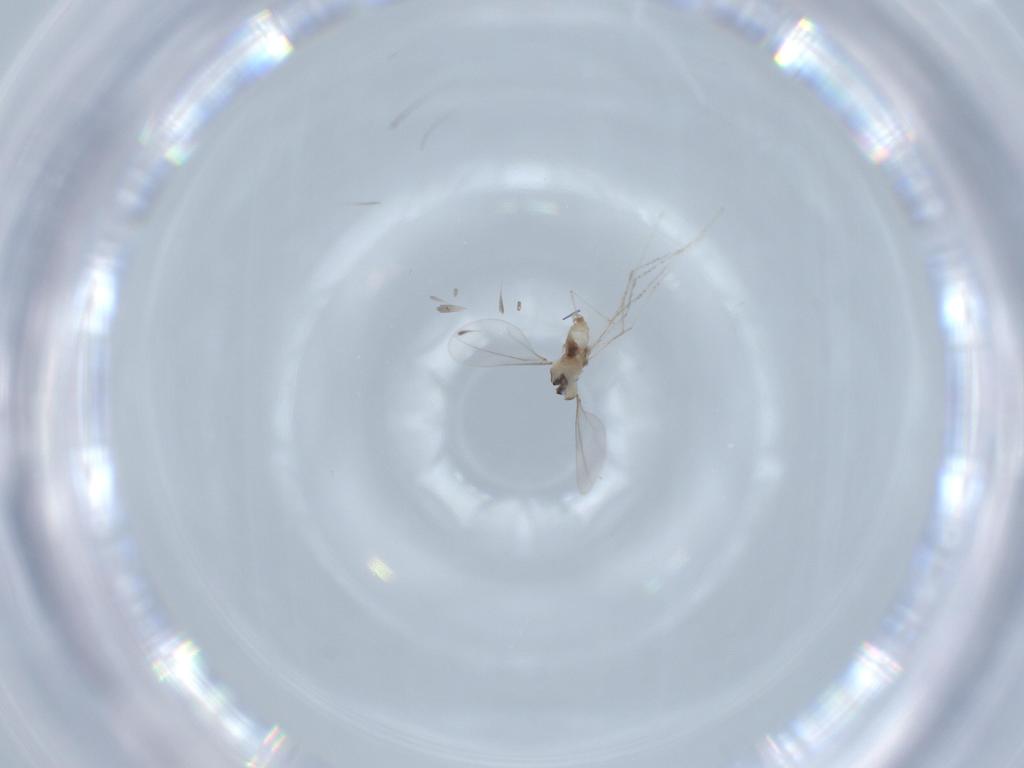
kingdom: Animalia
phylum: Arthropoda
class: Insecta
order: Diptera
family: Cecidomyiidae
